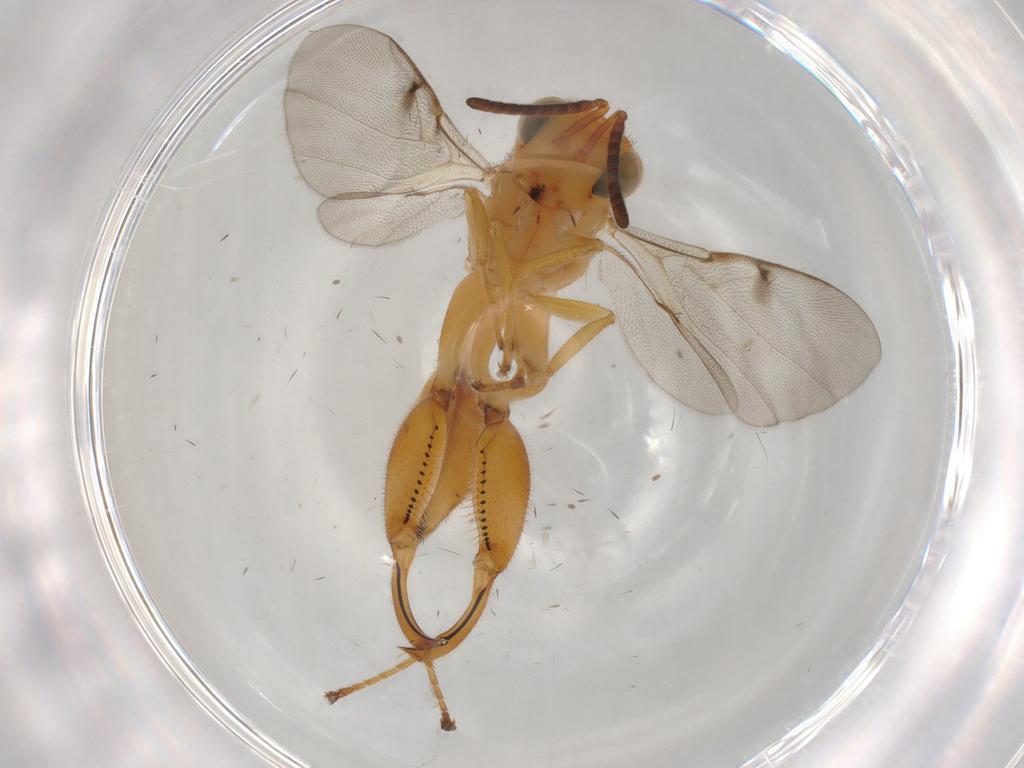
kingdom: Animalia
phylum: Arthropoda
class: Insecta
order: Hymenoptera
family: Chalcididae
